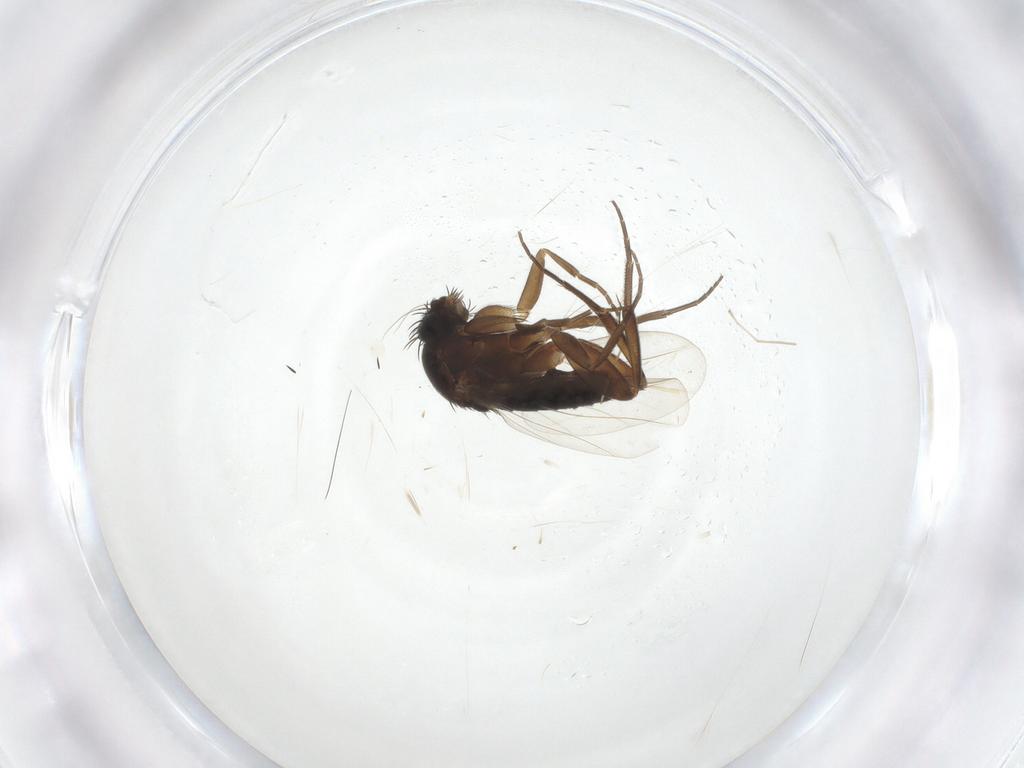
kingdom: Animalia
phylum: Arthropoda
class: Insecta
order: Diptera
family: Phoridae
